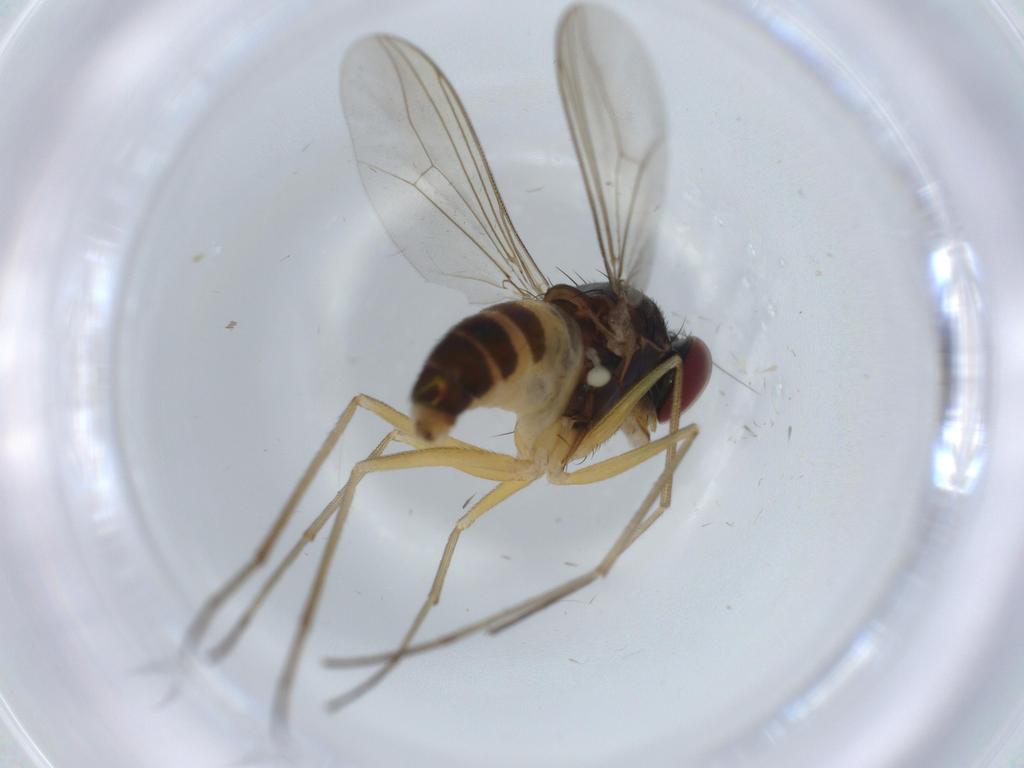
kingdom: Animalia
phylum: Arthropoda
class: Insecta
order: Diptera
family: Dolichopodidae
